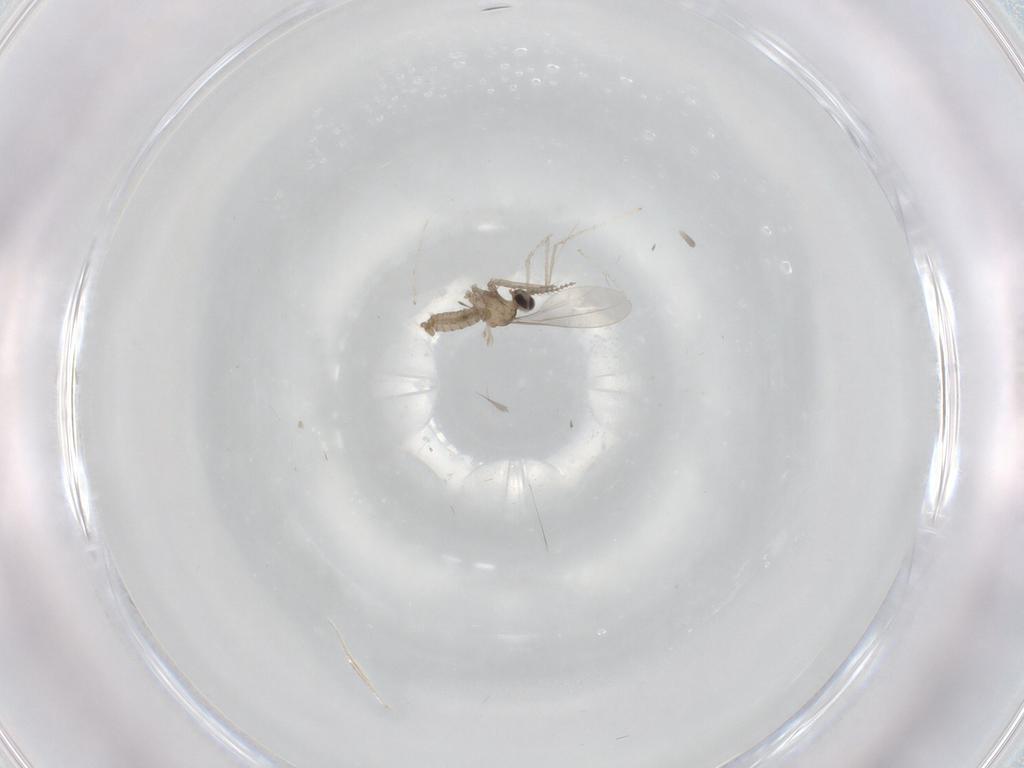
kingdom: Animalia
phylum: Arthropoda
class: Insecta
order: Diptera
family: Cecidomyiidae
